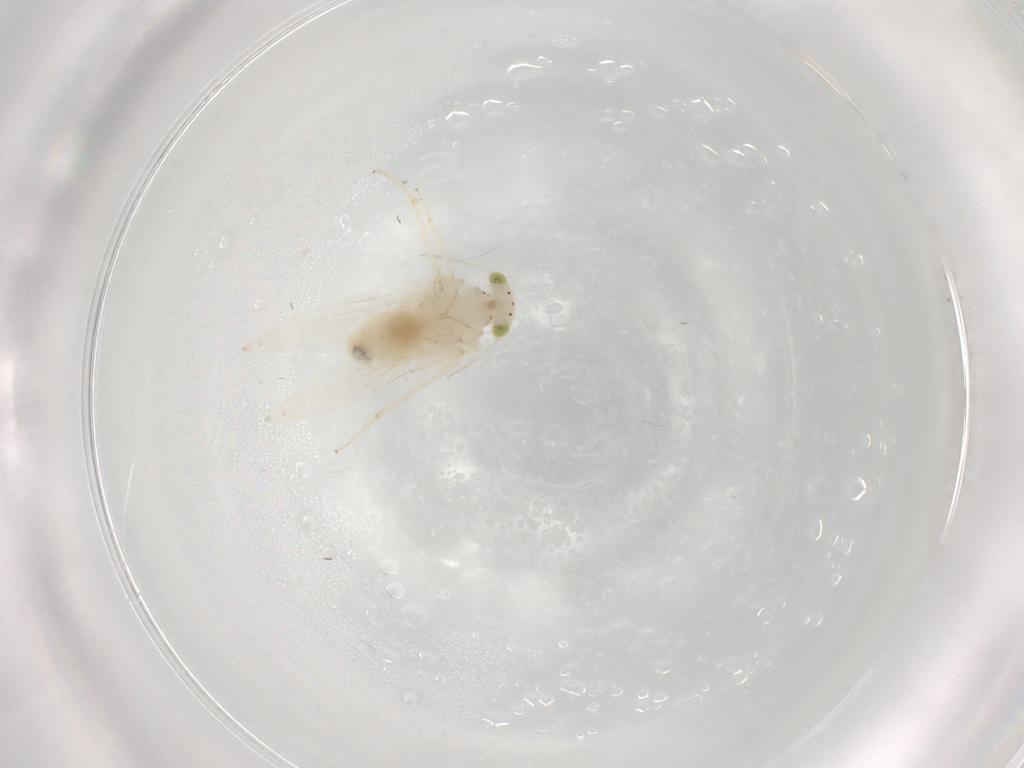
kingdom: Animalia
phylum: Arthropoda
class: Insecta
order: Psocodea
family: Lepidopsocidae
